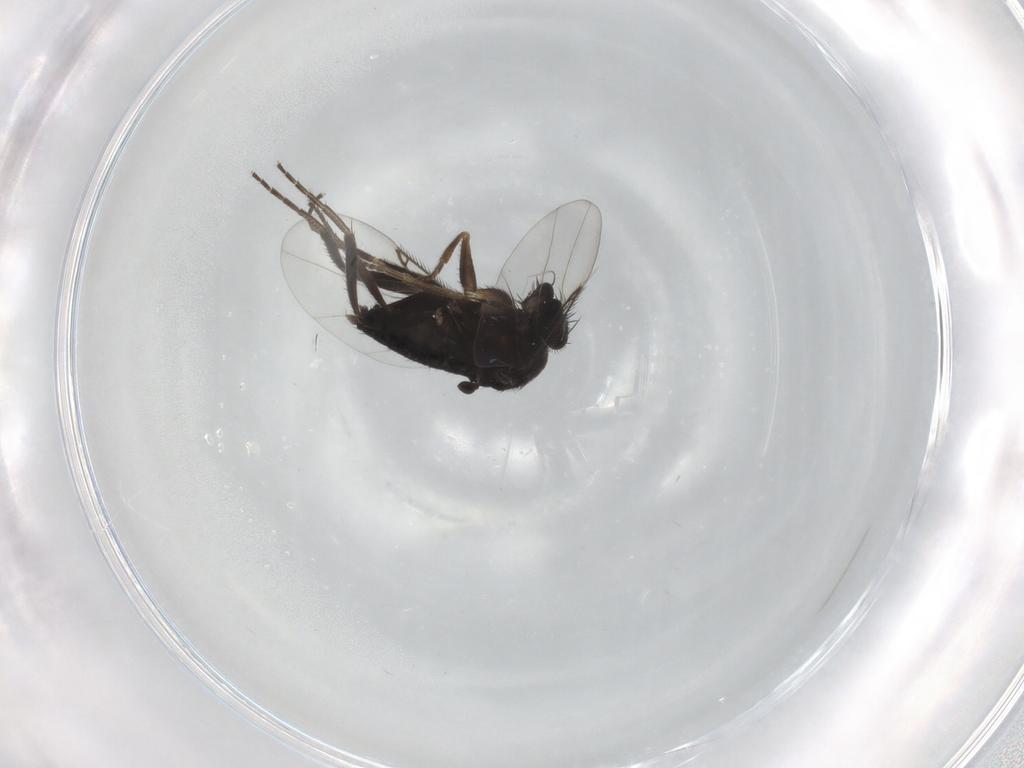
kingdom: Animalia
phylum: Arthropoda
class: Insecta
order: Diptera
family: Phoridae
